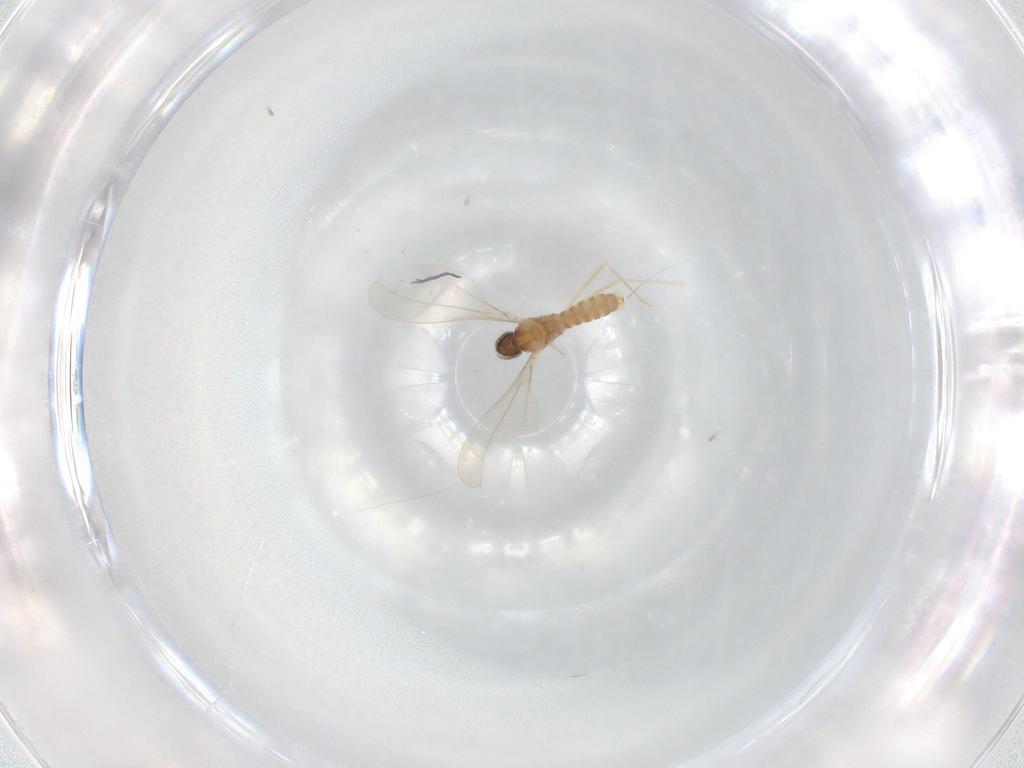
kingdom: Animalia
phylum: Arthropoda
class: Insecta
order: Diptera
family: Ceratopogonidae
